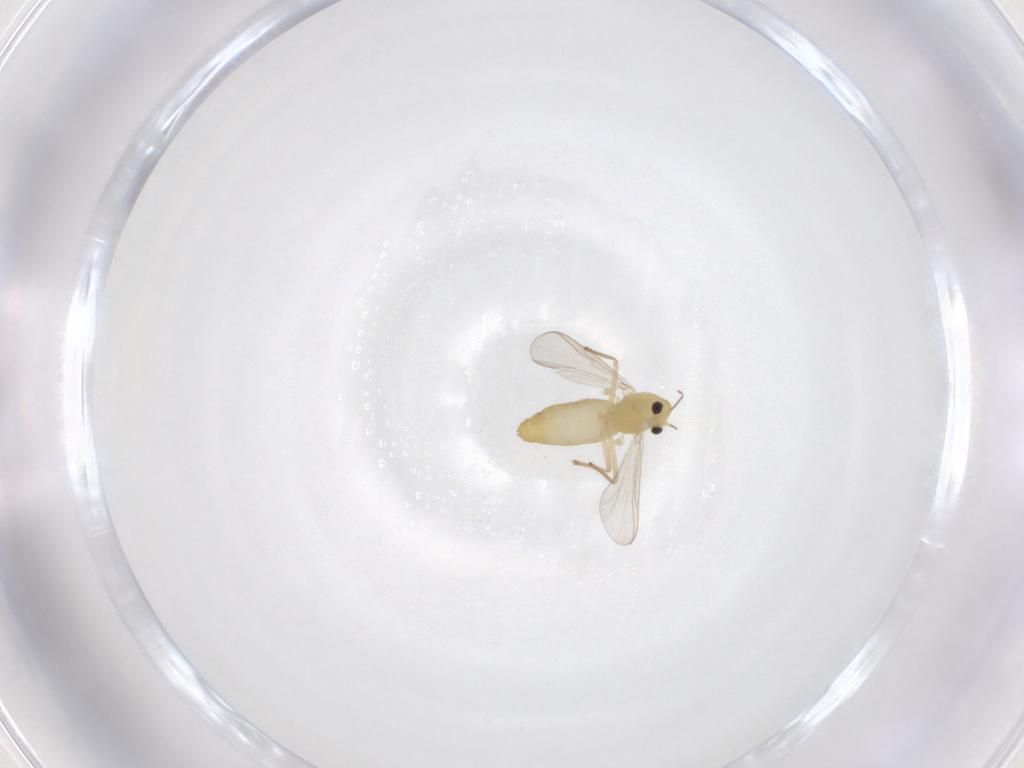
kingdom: Animalia
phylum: Arthropoda
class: Insecta
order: Diptera
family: Chironomidae
